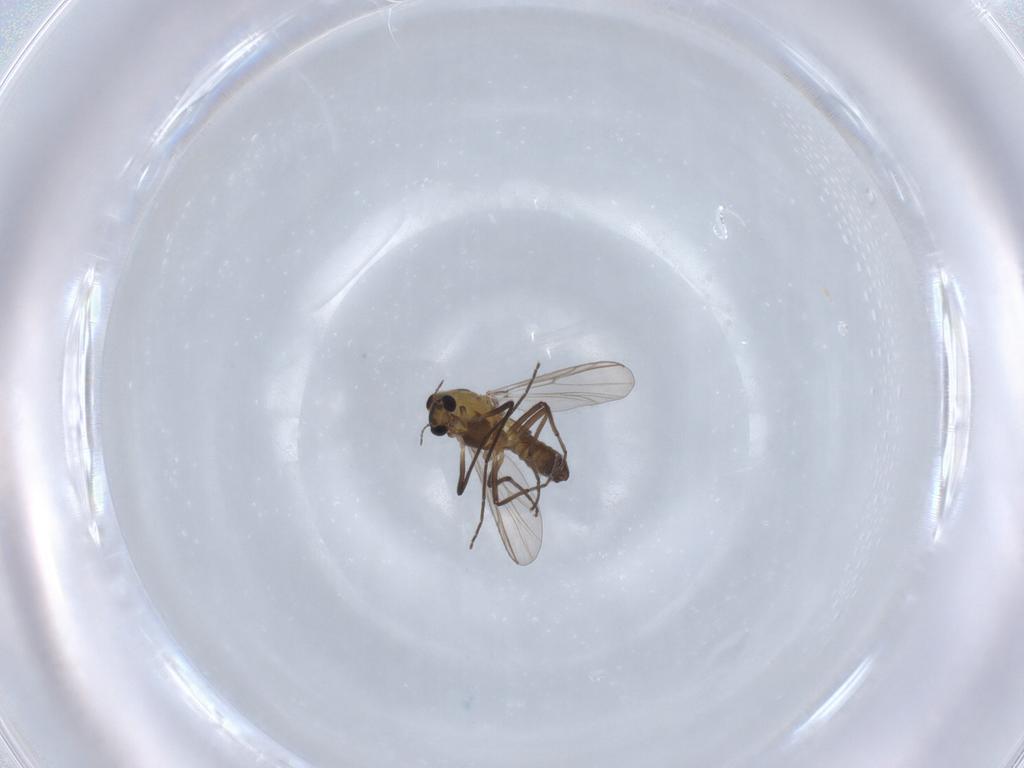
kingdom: Animalia
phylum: Arthropoda
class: Insecta
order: Diptera
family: Chironomidae
